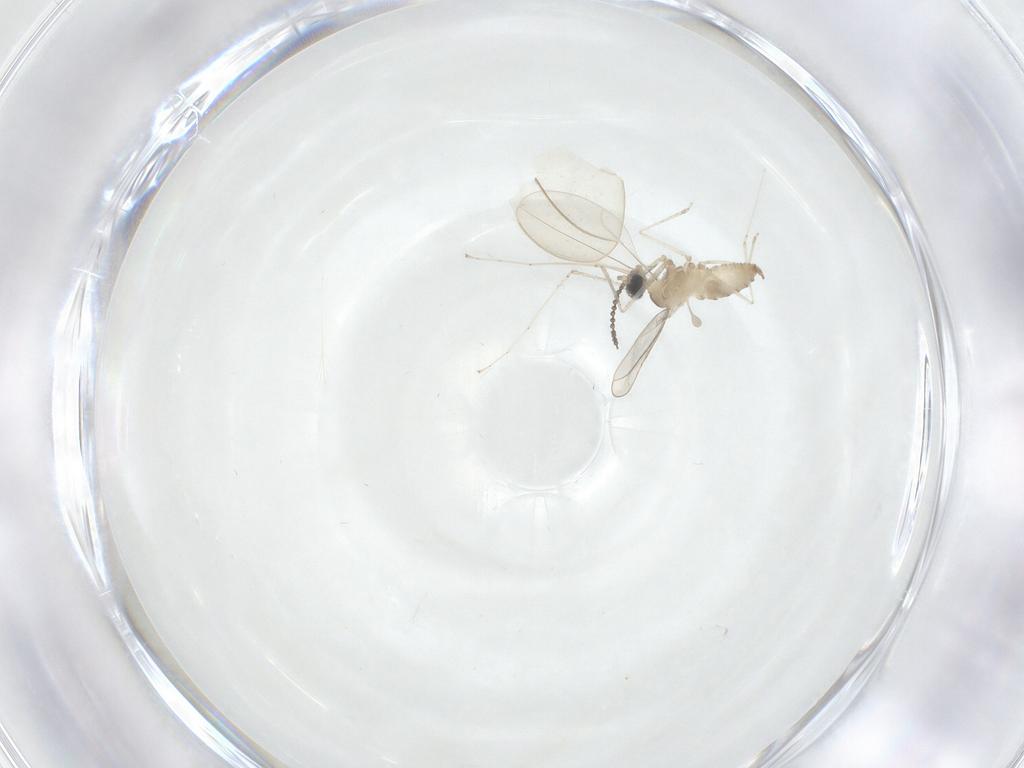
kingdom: Animalia
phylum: Arthropoda
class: Insecta
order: Diptera
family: Cecidomyiidae
